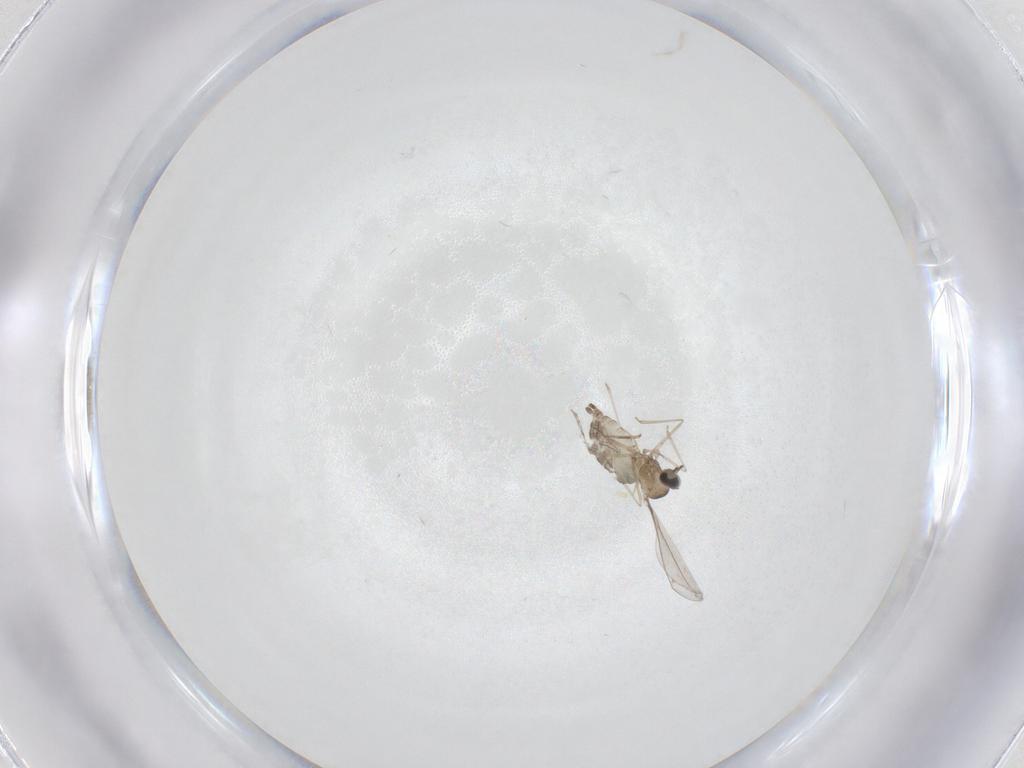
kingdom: Animalia
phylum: Arthropoda
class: Insecta
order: Diptera
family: Cecidomyiidae
